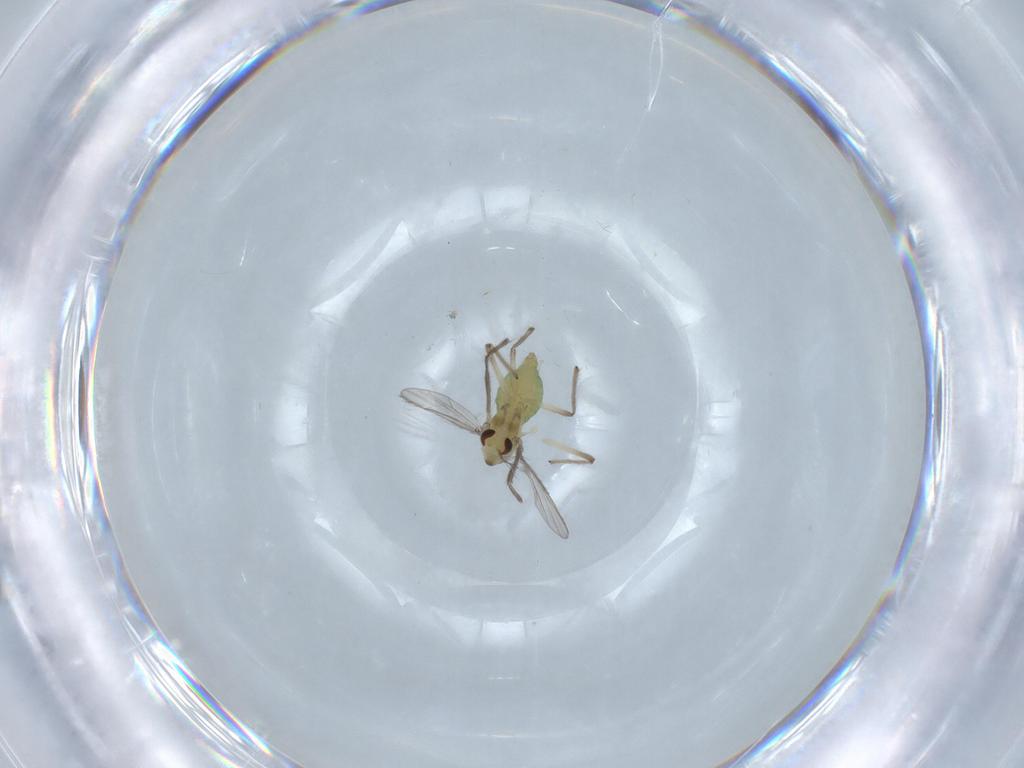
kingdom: Animalia
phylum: Arthropoda
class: Insecta
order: Diptera
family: Chironomidae
